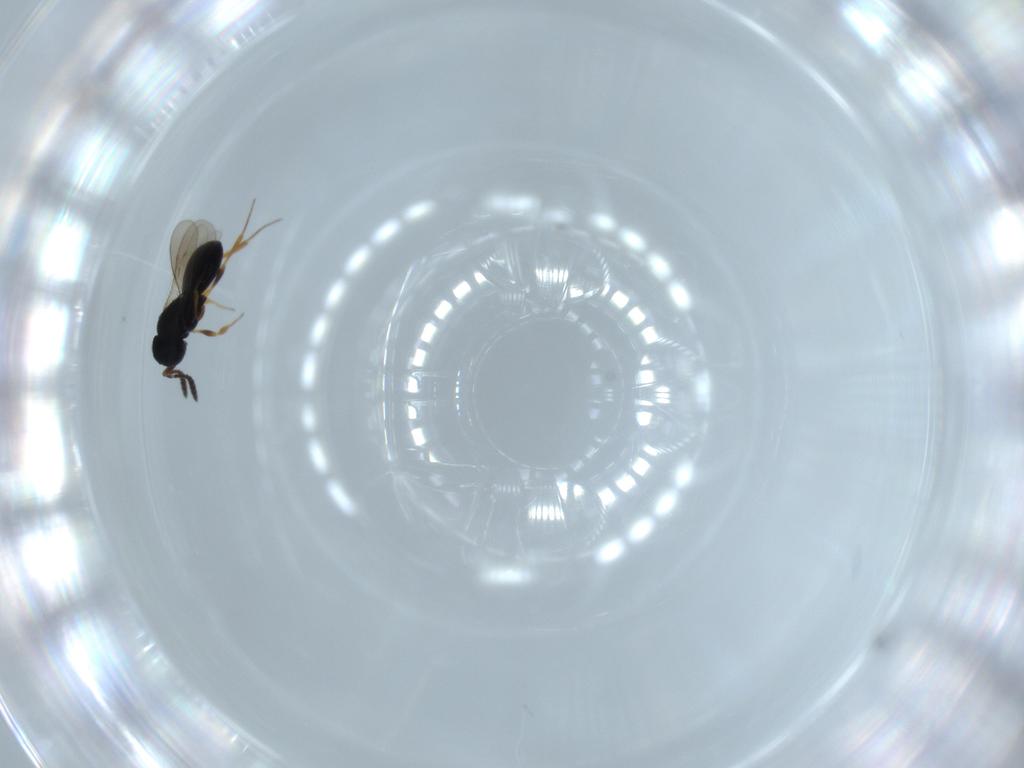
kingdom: Animalia
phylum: Arthropoda
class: Insecta
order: Hymenoptera
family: Scelionidae
